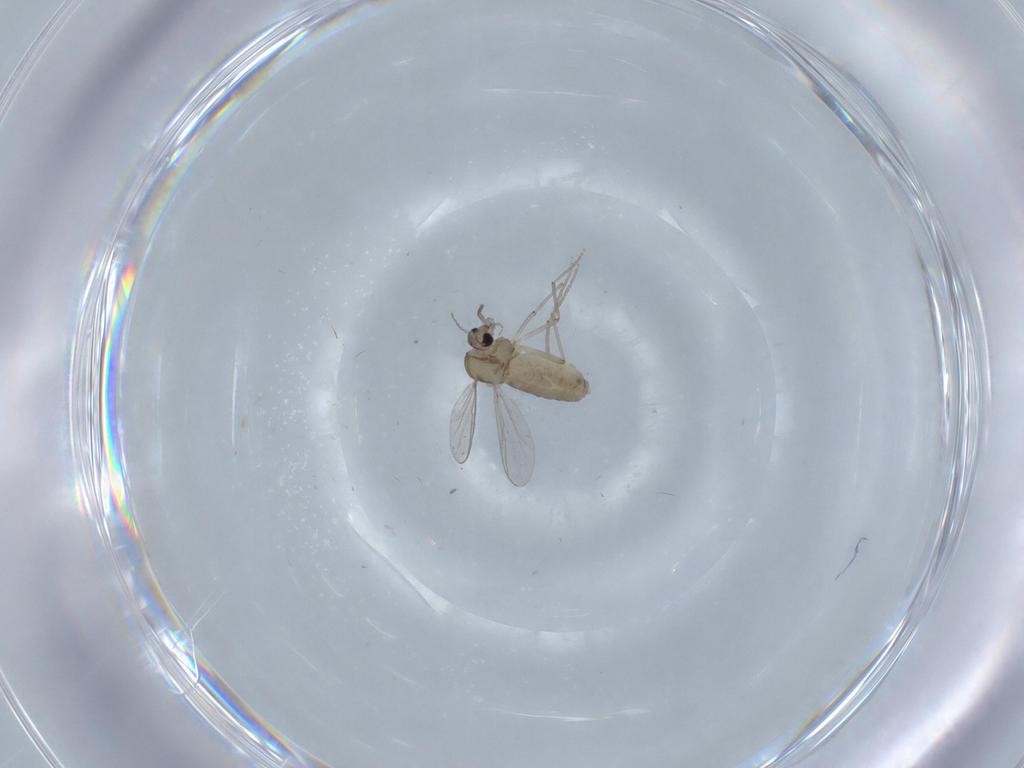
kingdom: Animalia
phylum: Arthropoda
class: Insecta
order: Diptera
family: Chironomidae
